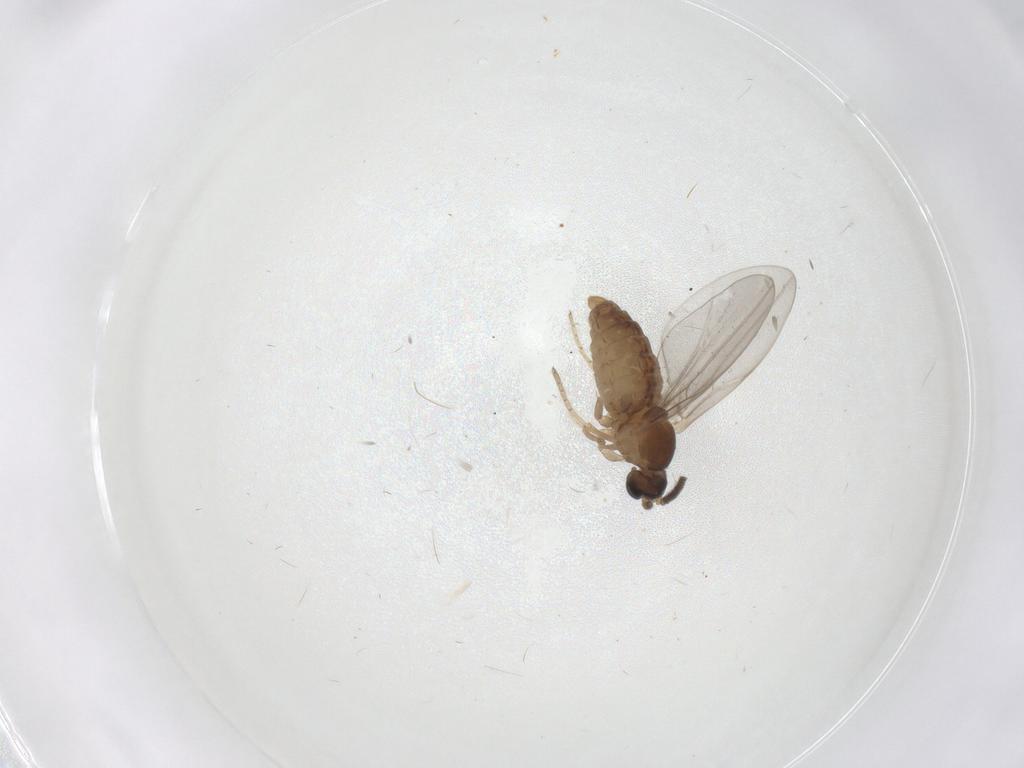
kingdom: Animalia
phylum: Arthropoda
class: Insecta
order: Diptera
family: Cecidomyiidae
